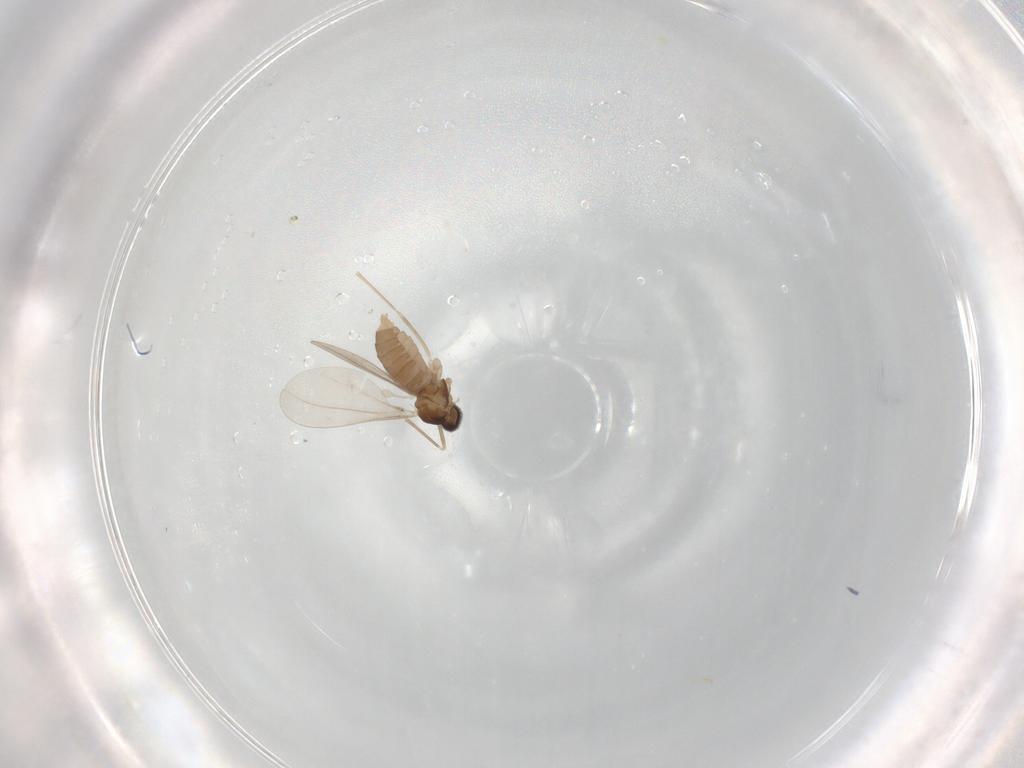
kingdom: Animalia
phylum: Arthropoda
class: Insecta
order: Diptera
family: Cecidomyiidae
